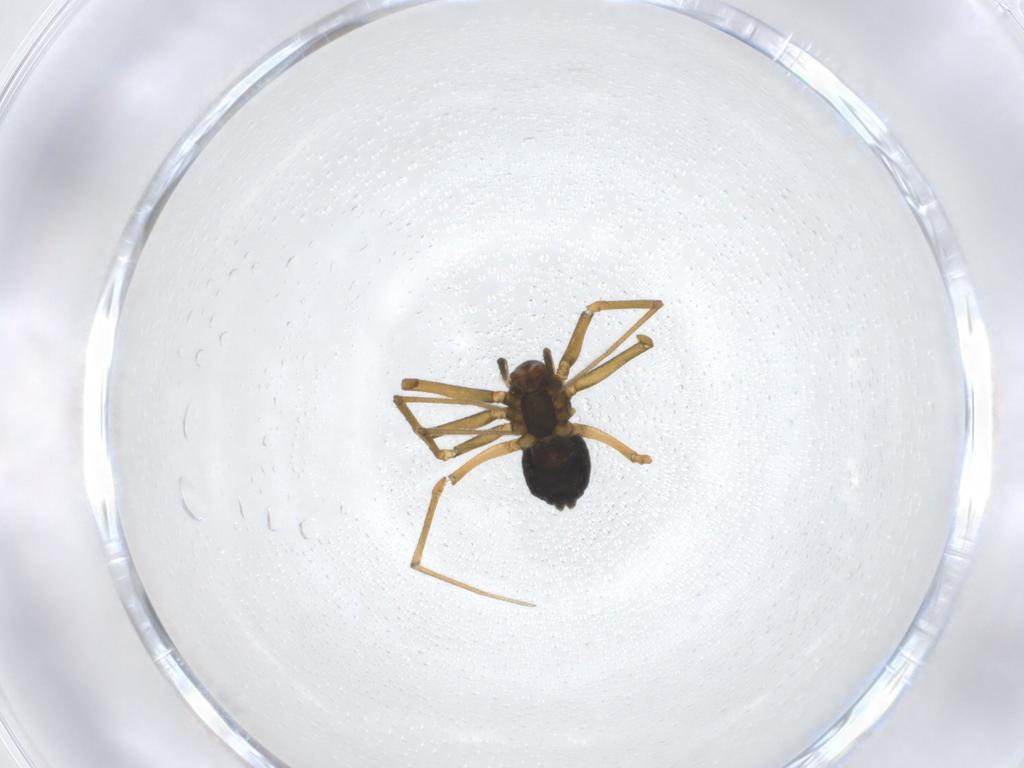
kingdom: Animalia
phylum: Arthropoda
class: Arachnida
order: Araneae
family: Linyphiidae
